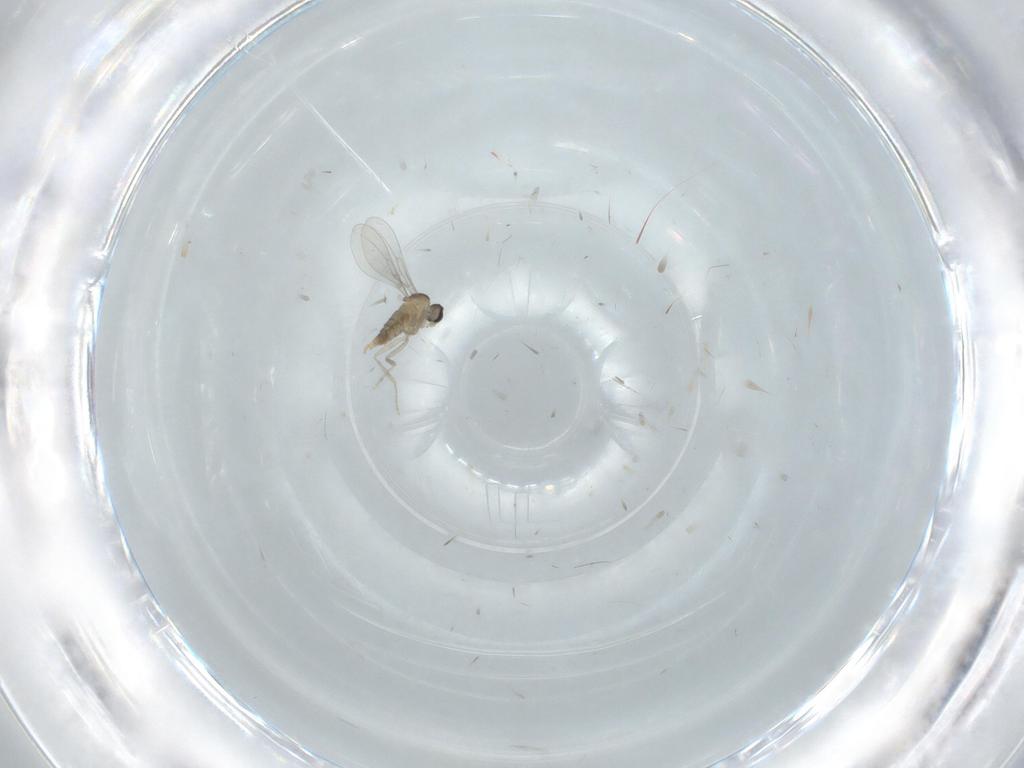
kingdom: Animalia
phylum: Arthropoda
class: Insecta
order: Diptera
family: Cecidomyiidae
